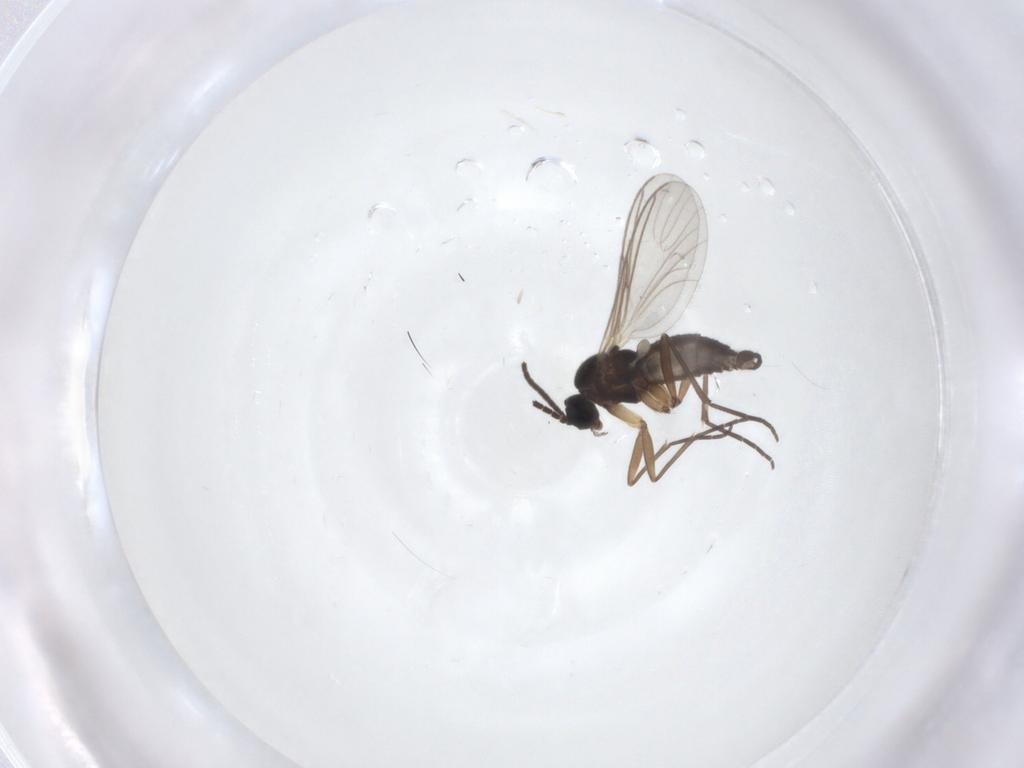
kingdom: Animalia
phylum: Arthropoda
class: Insecta
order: Diptera
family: Sciaridae
